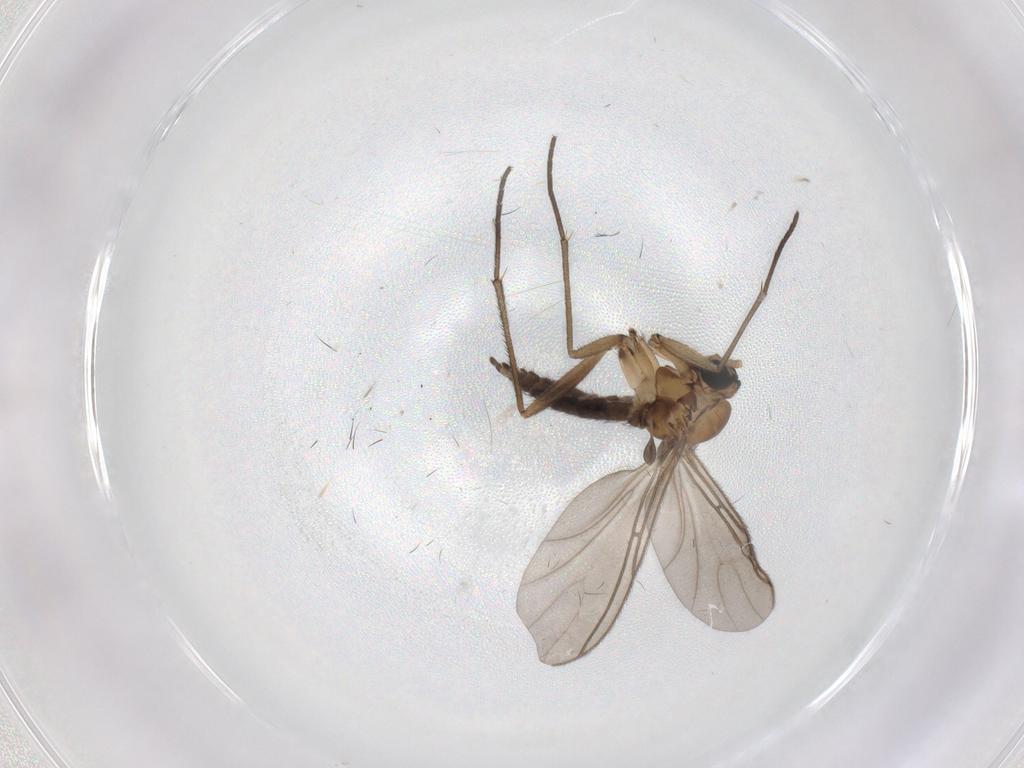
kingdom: Animalia
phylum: Arthropoda
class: Insecta
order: Diptera
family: Sciaridae
